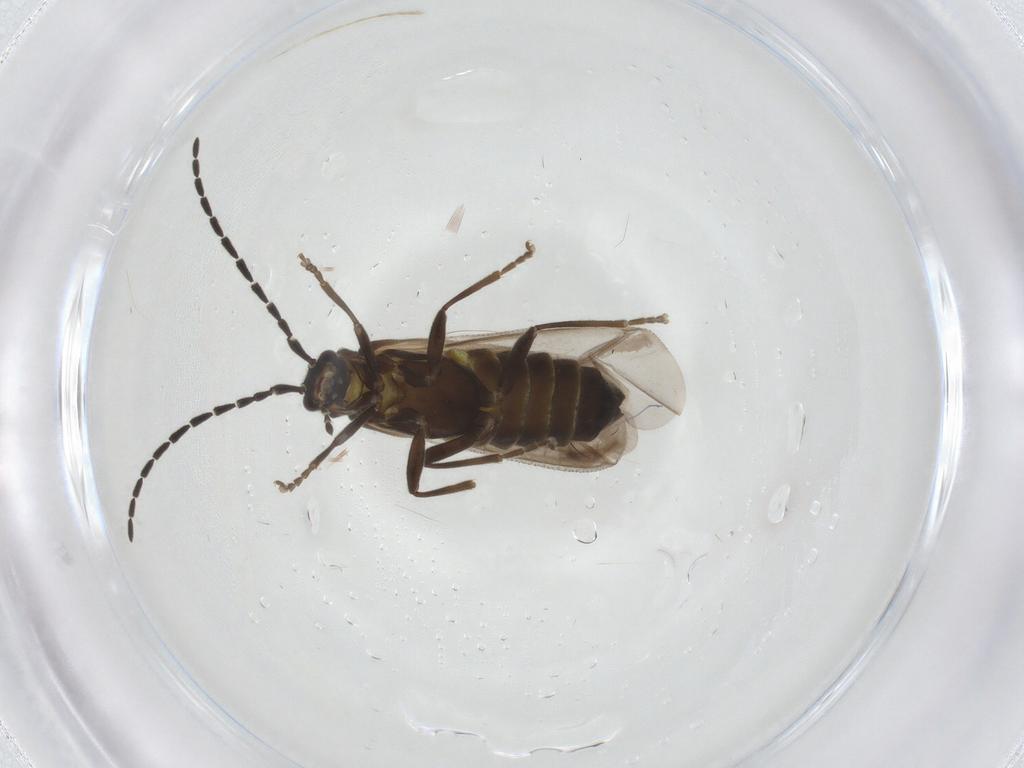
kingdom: Animalia
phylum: Arthropoda
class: Insecta
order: Coleoptera
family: Cantharidae
